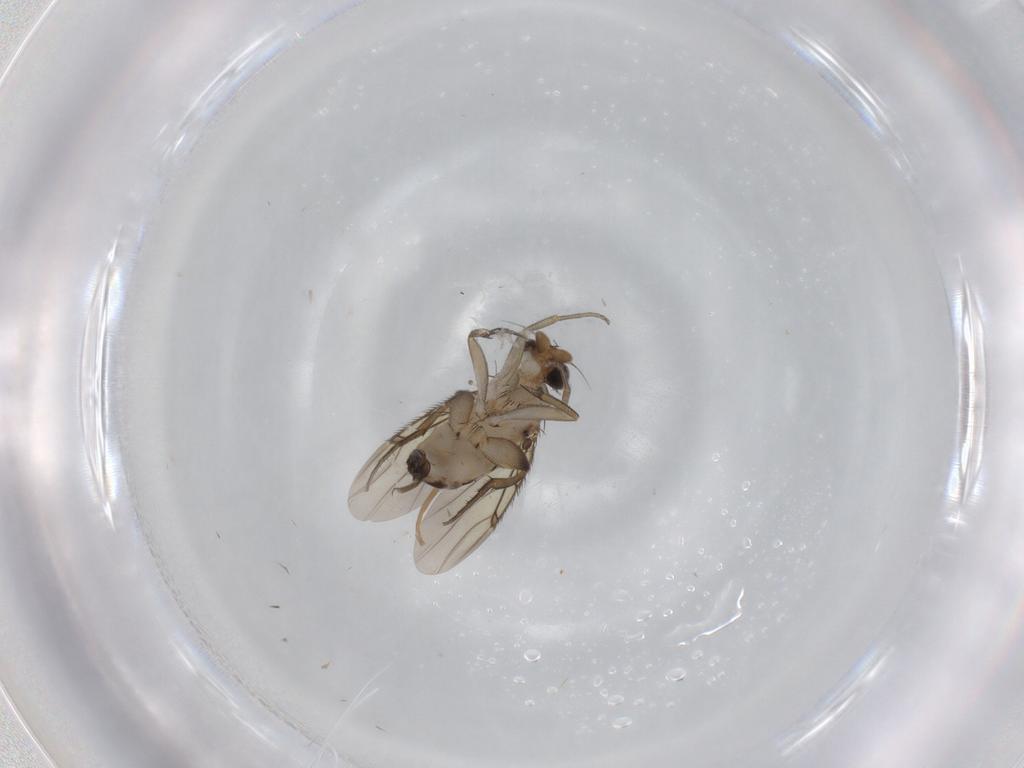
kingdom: Animalia
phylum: Arthropoda
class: Insecta
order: Diptera
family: Phoridae
